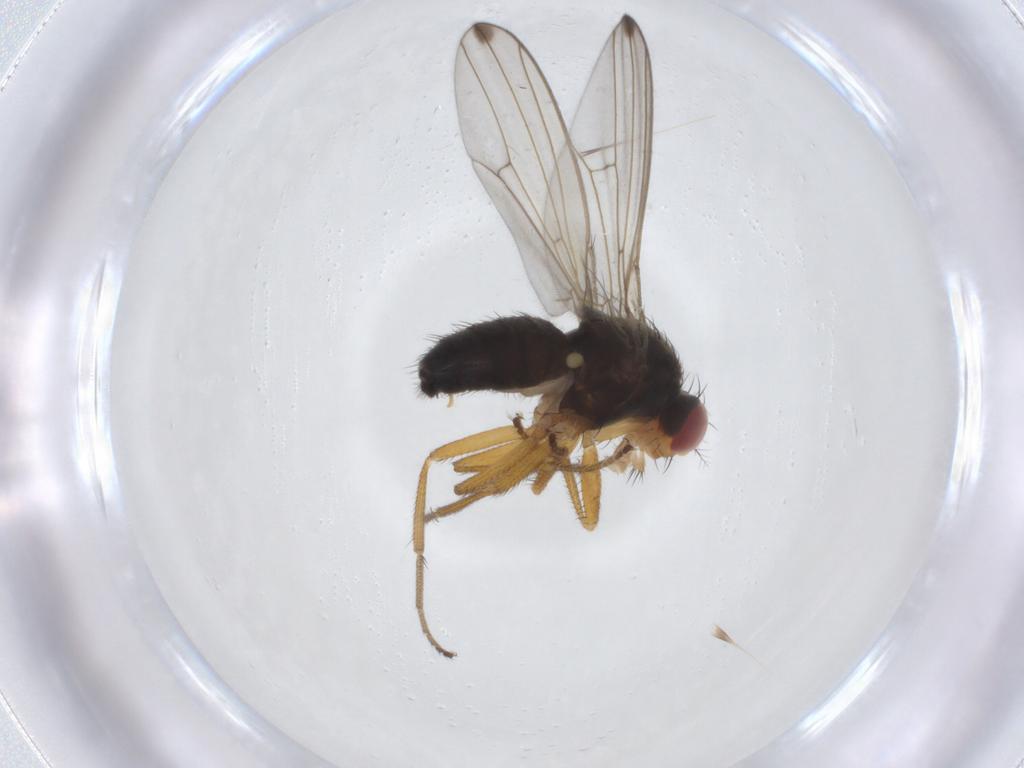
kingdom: Animalia
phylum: Arthropoda
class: Insecta
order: Diptera
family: Drosophilidae
